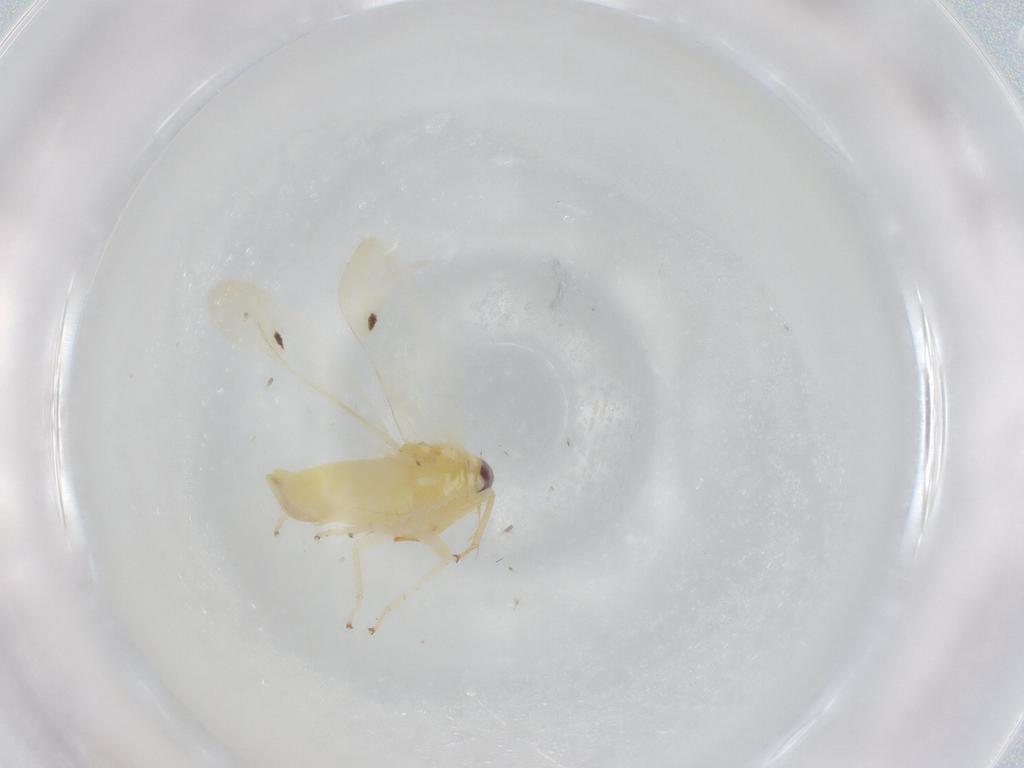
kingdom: Animalia
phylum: Arthropoda
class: Insecta
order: Hemiptera
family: Cicadellidae
